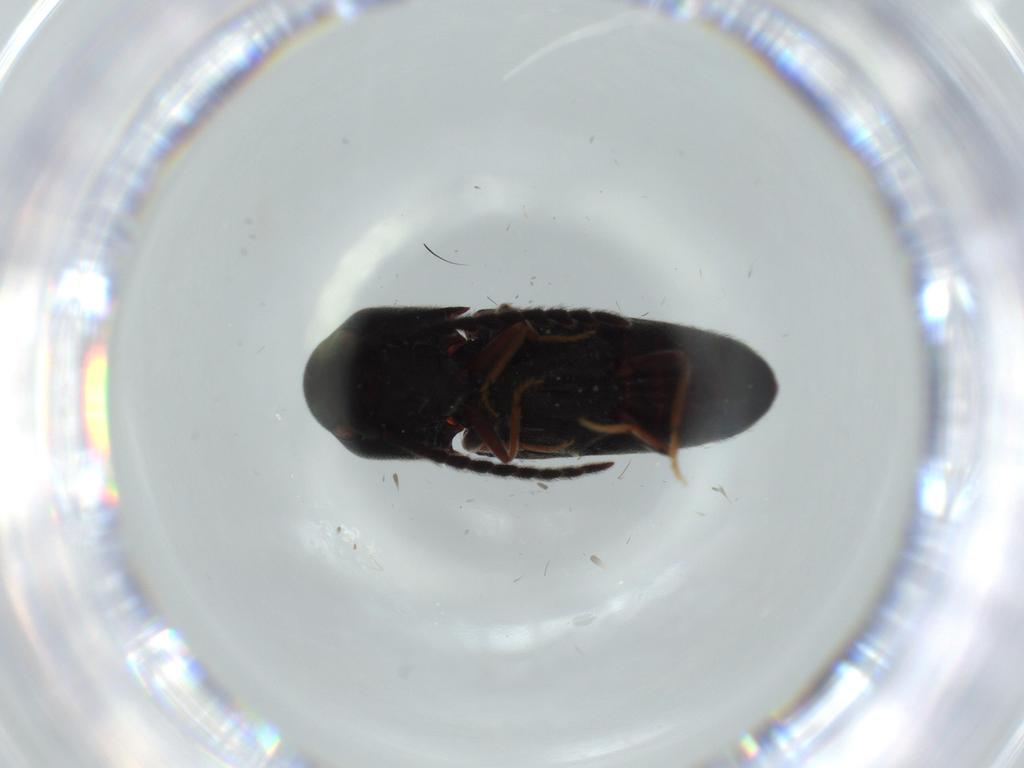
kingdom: Animalia
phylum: Arthropoda
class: Insecta
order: Coleoptera
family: Eucnemidae
